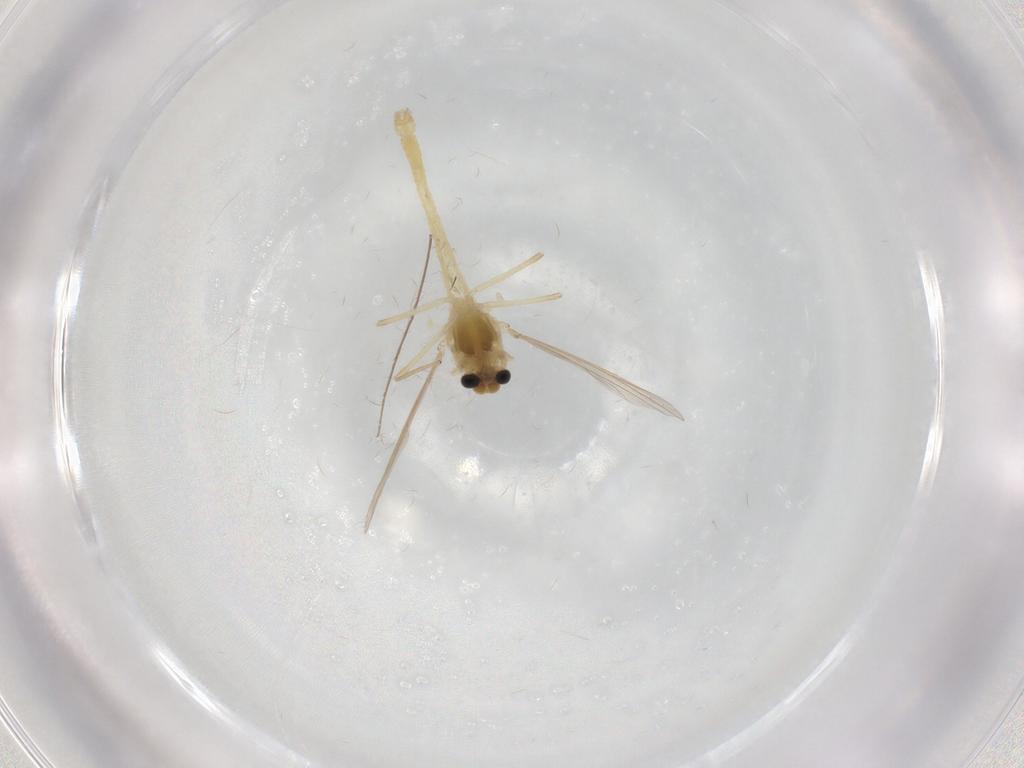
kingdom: Animalia
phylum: Arthropoda
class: Insecta
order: Diptera
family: Chironomidae
